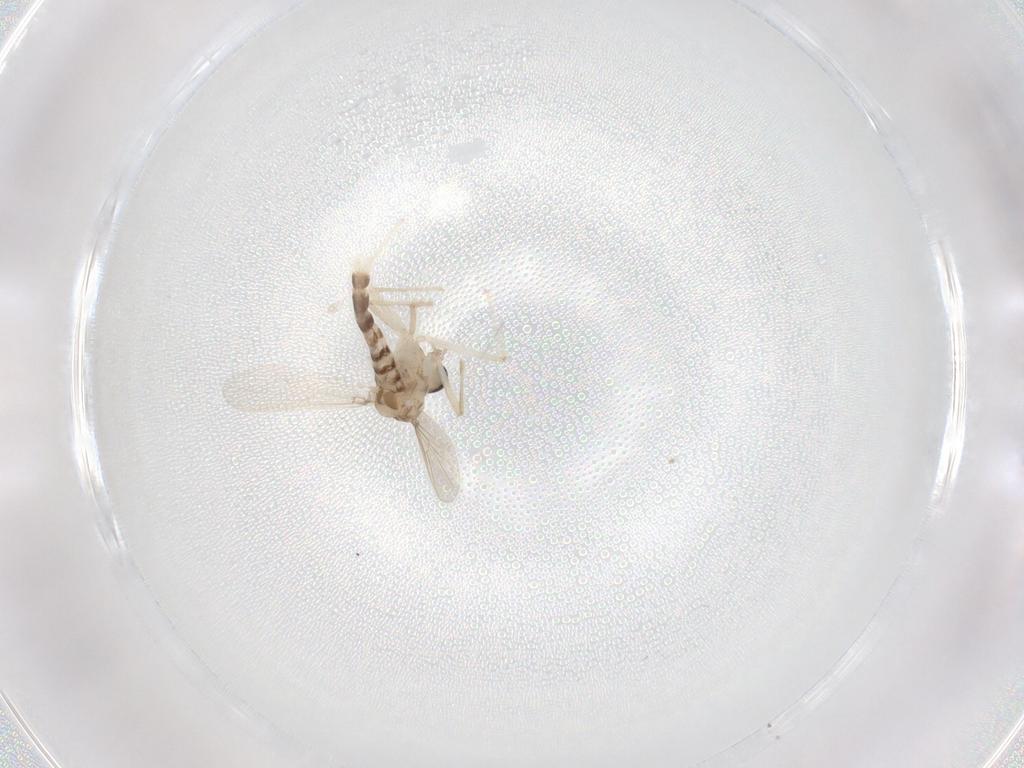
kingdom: Animalia
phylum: Arthropoda
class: Insecta
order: Diptera
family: Chironomidae
